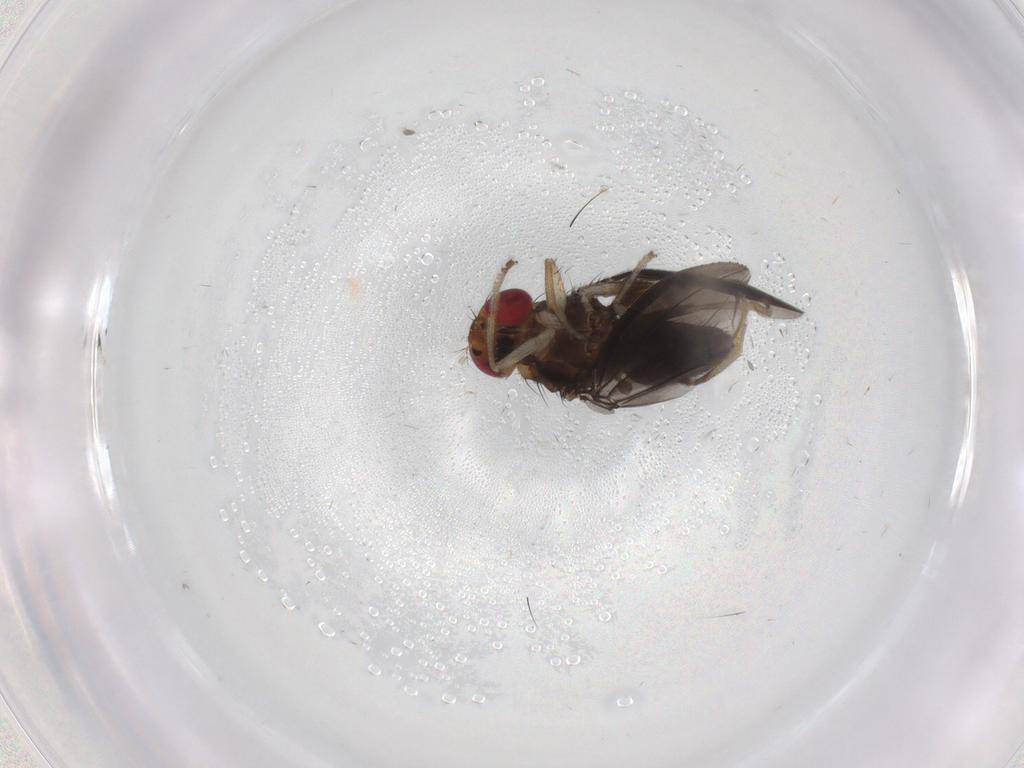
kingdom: Animalia
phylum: Arthropoda
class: Insecta
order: Diptera
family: Drosophilidae
